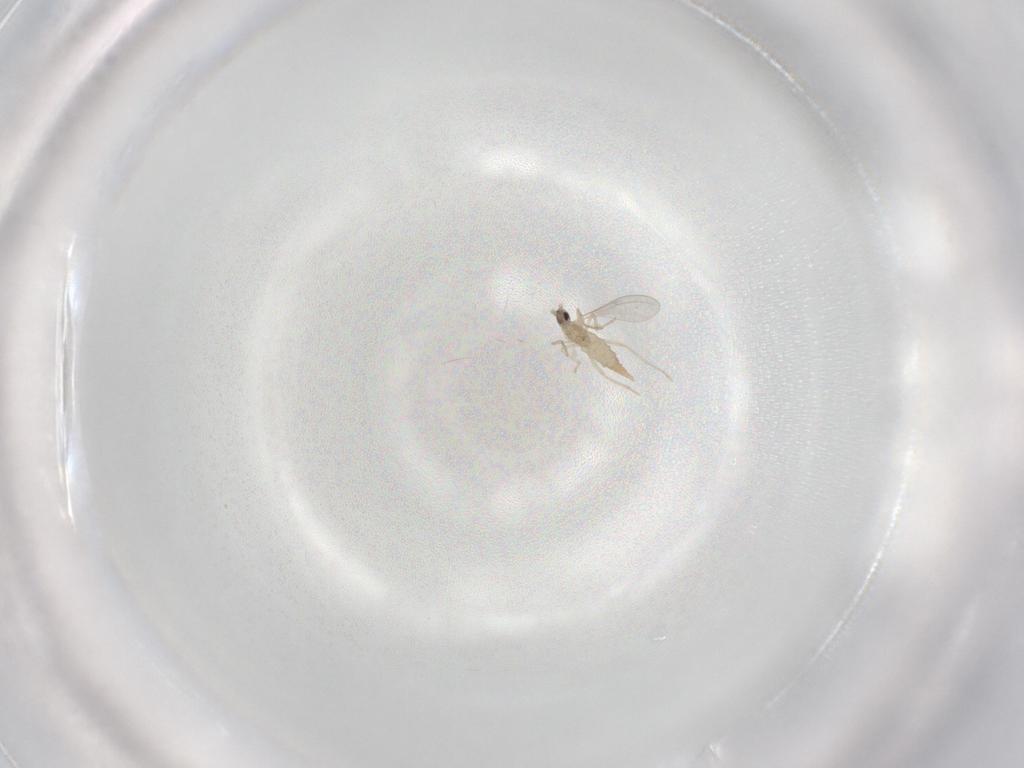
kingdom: Animalia
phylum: Arthropoda
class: Insecta
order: Diptera
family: Cecidomyiidae
